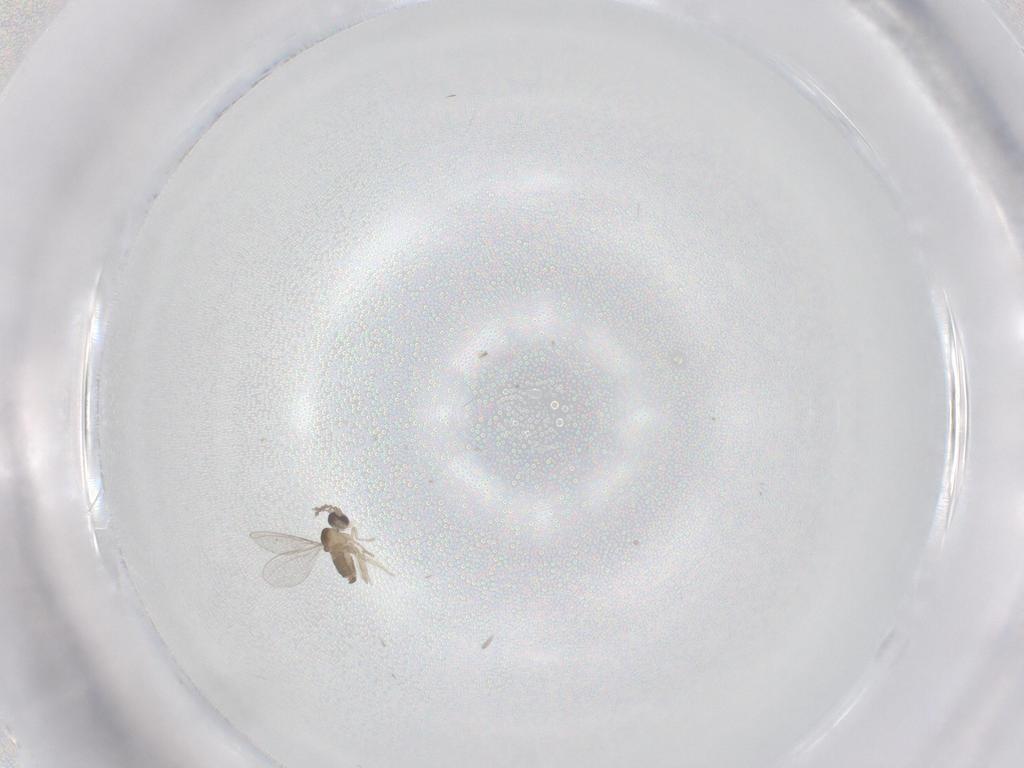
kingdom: Animalia
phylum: Arthropoda
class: Insecta
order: Diptera
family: Cecidomyiidae
